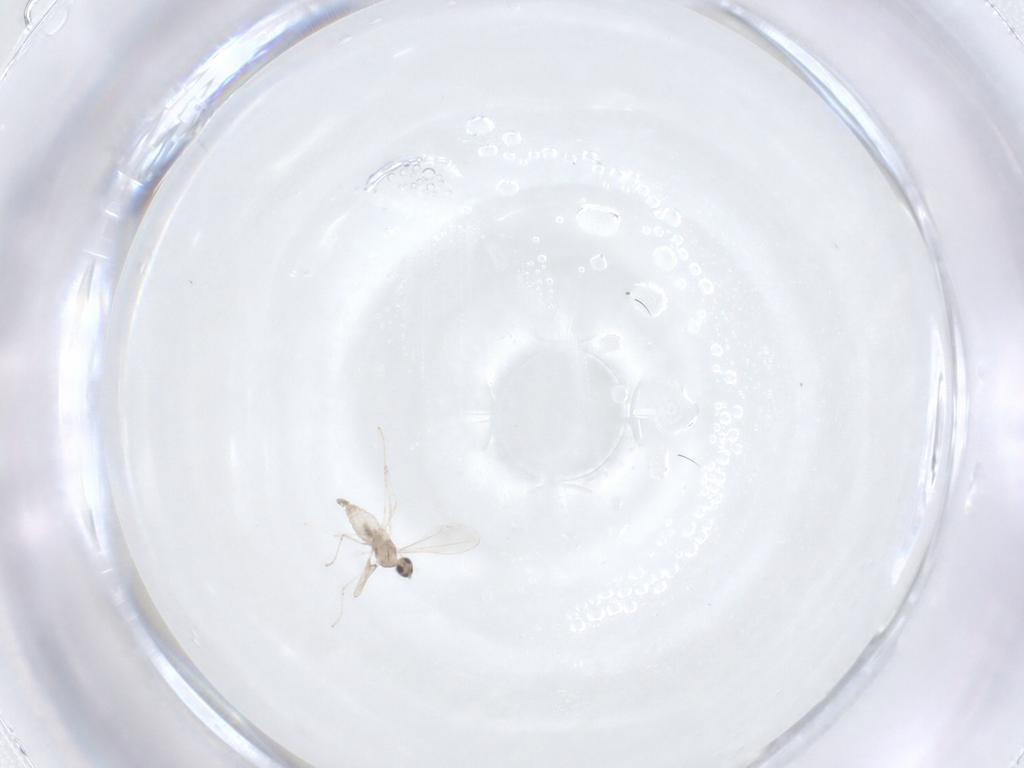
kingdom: Animalia
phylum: Arthropoda
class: Insecta
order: Diptera
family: Cecidomyiidae
